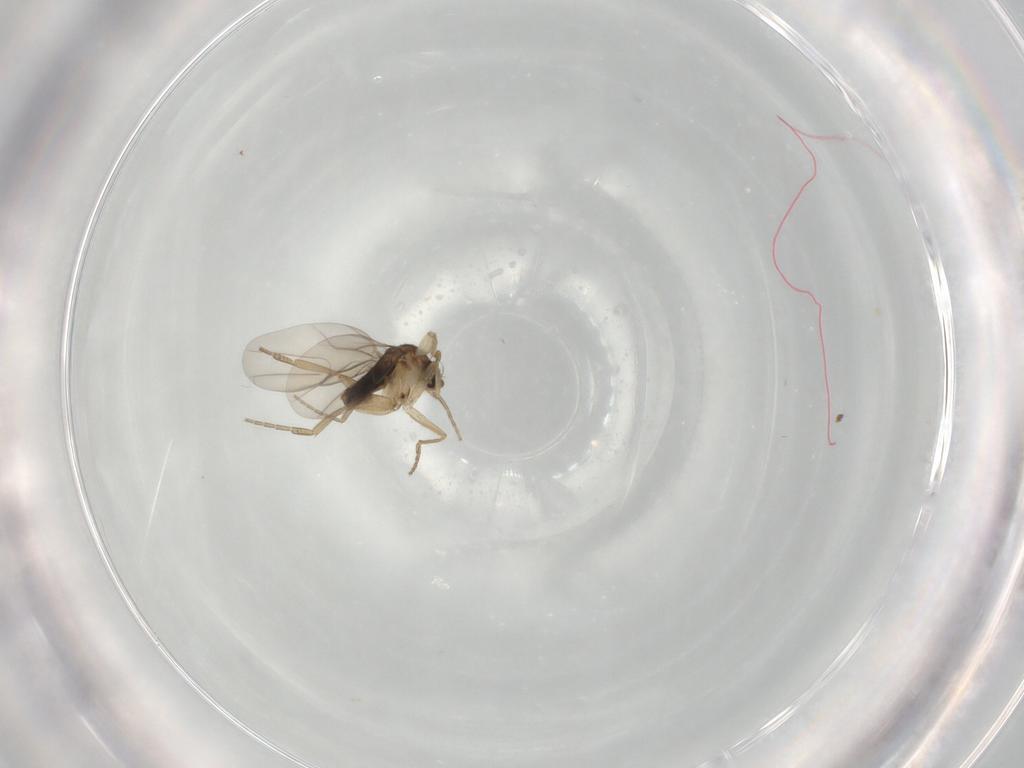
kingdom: Animalia
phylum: Arthropoda
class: Insecta
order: Diptera
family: Phoridae
